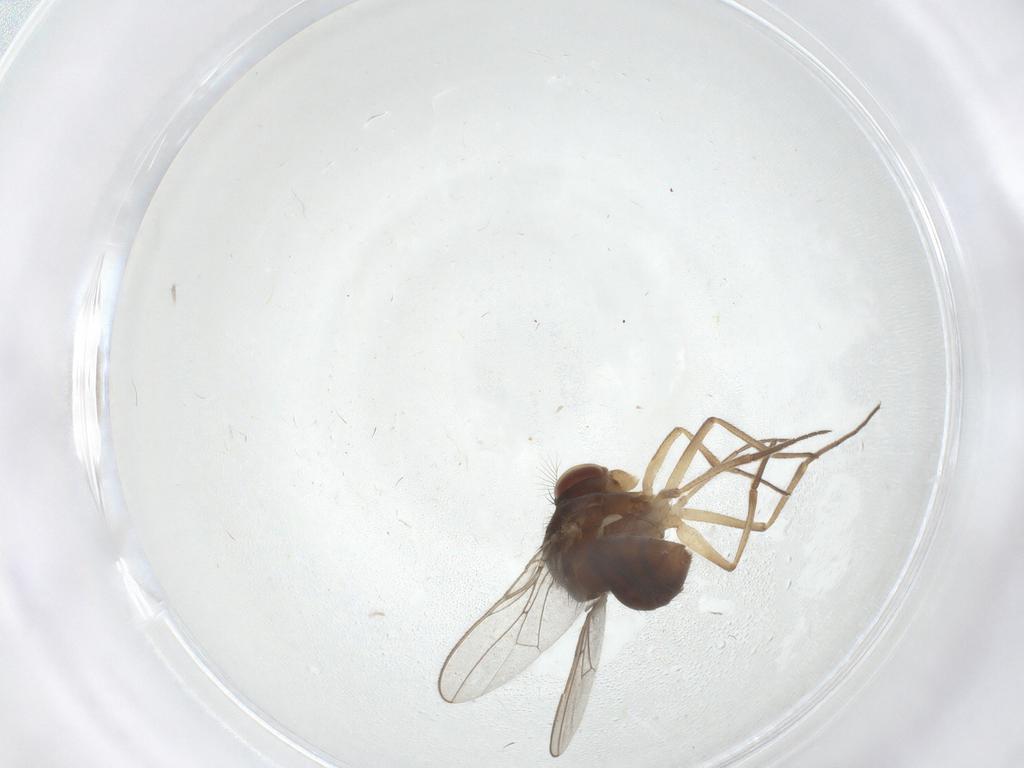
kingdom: Animalia
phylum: Arthropoda
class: Insecta
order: Diptera
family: Ephydridae
